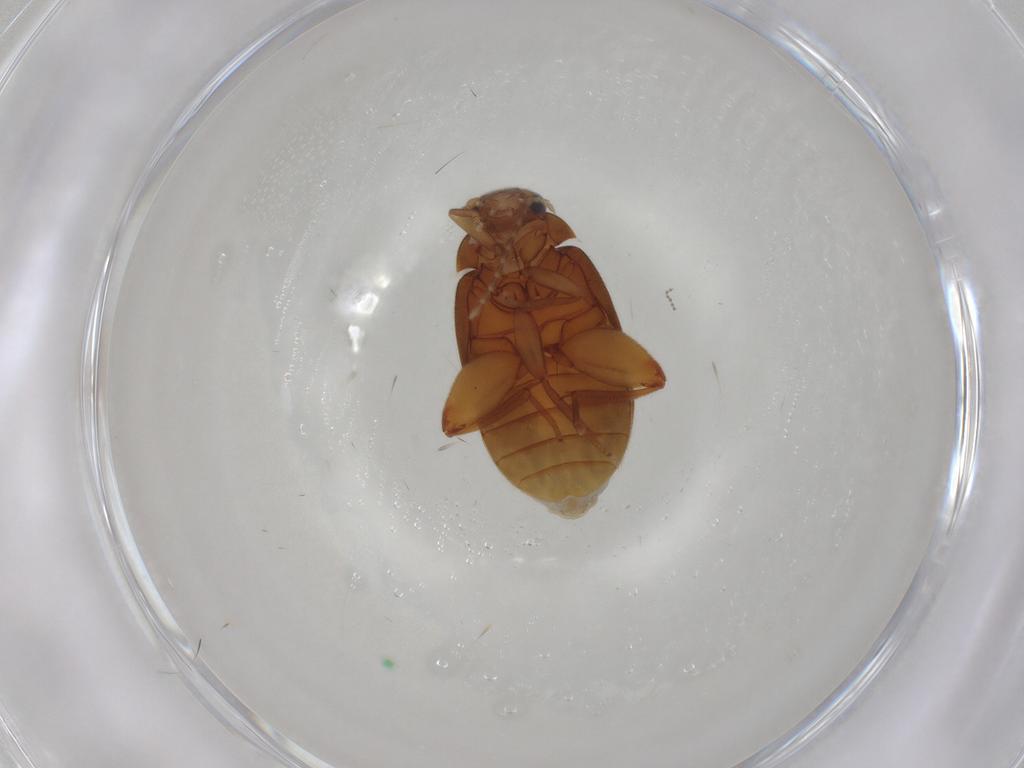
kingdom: Animalia
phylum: Arthropoda
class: Insecta
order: Coleoptera
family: Scirtidae
